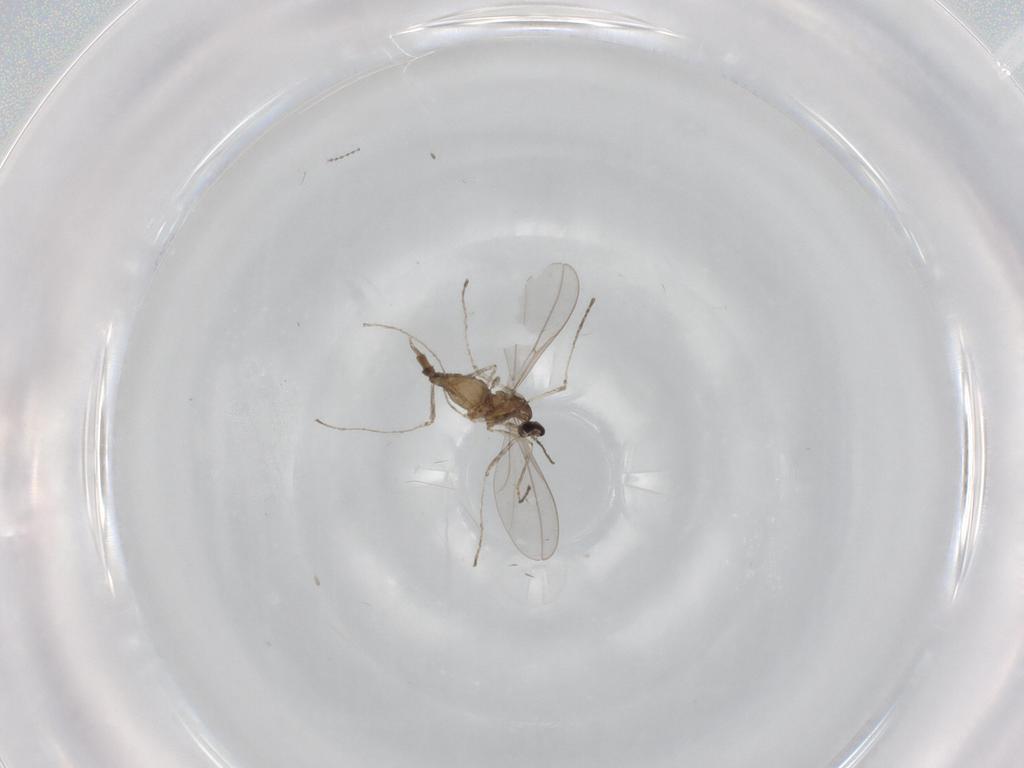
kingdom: Animalia
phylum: Arthropoda
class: Insecta
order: Diptera
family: Cecidomyiidae
